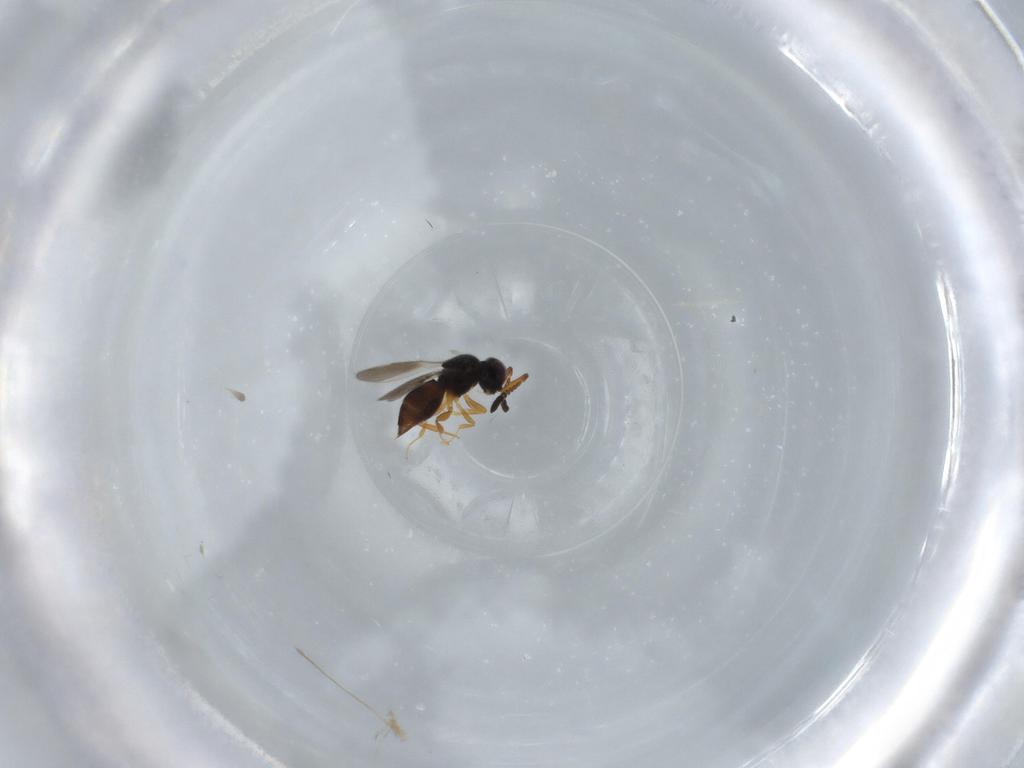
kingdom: Animalia
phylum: Arthropoda
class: Insecta
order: Hymenoptera
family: Ceraphronidae
